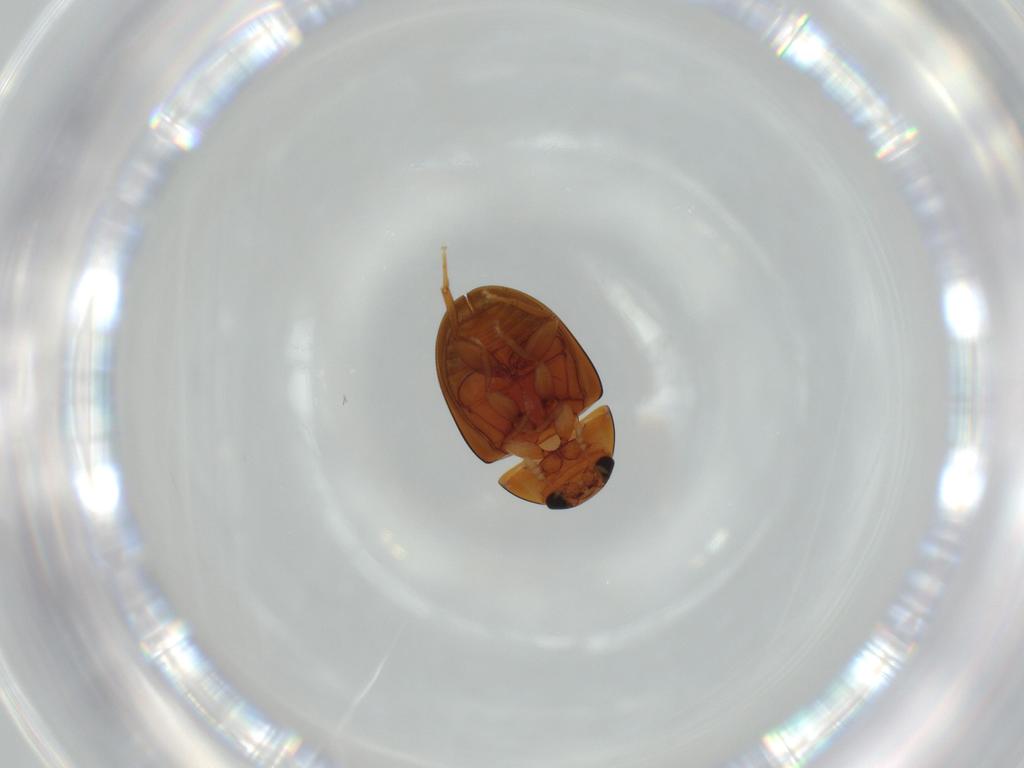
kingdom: Animalia
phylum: Arthropoda
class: Insecta
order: Coleoptera
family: Phalacridae
